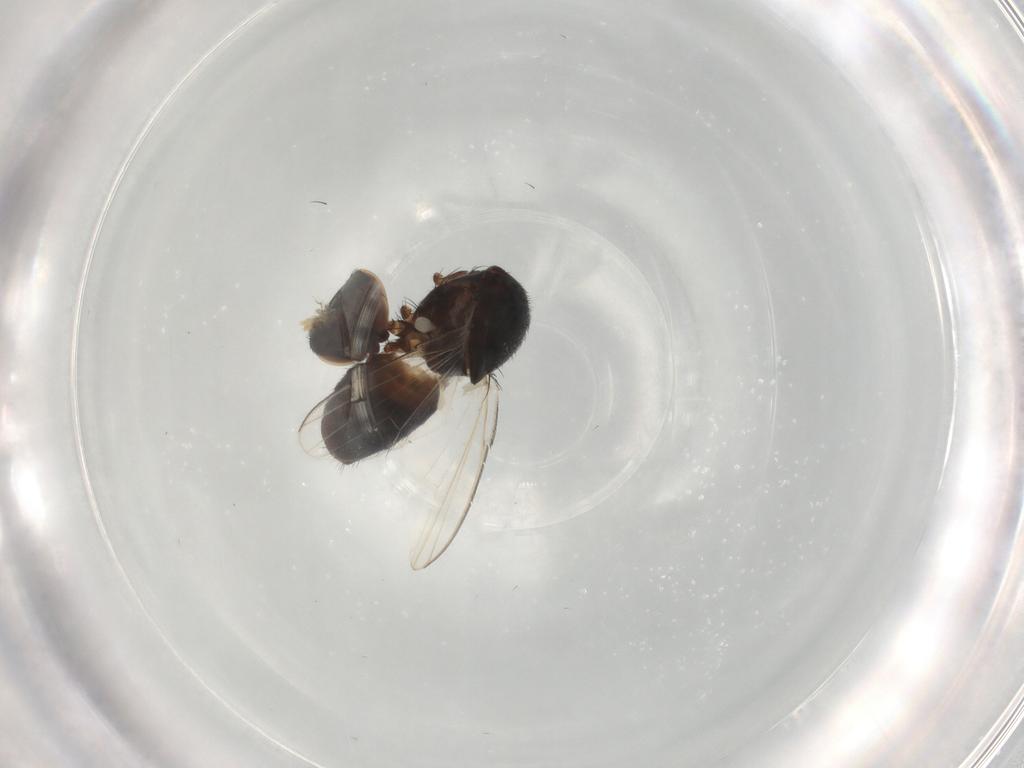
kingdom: Animalia
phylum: Arthropoda
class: Insecta
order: Diptera
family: Milichiidae
